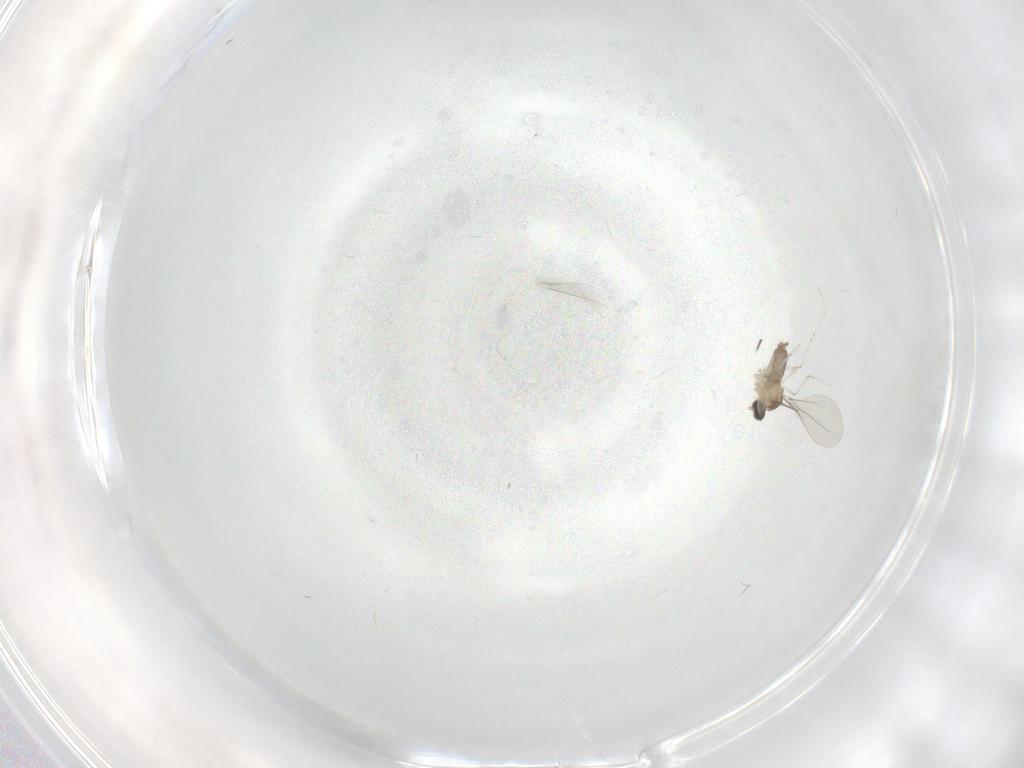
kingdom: Animalia
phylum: Arthropoda
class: Insecta
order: Diptera
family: Cecidomyiidae
